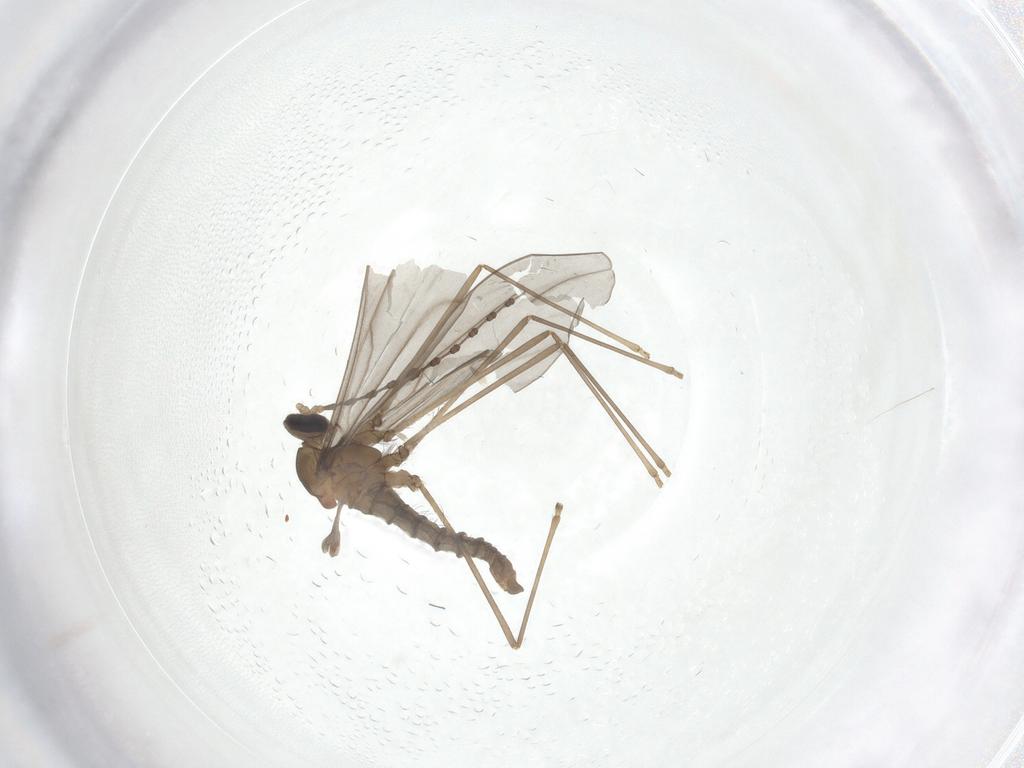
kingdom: Animalia
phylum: Arthropoda
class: Insecta
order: Diptera
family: Cecidomyiidae
